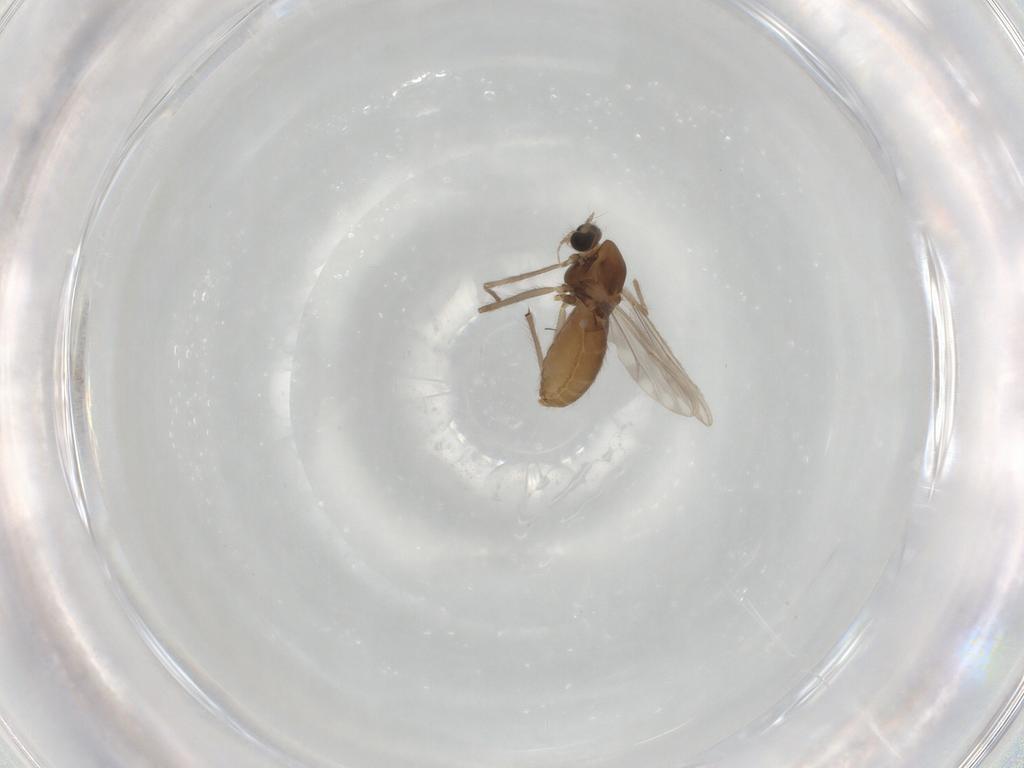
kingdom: Animalia
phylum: Arthropoda
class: Insecta
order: Diptera
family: Chironomidae
